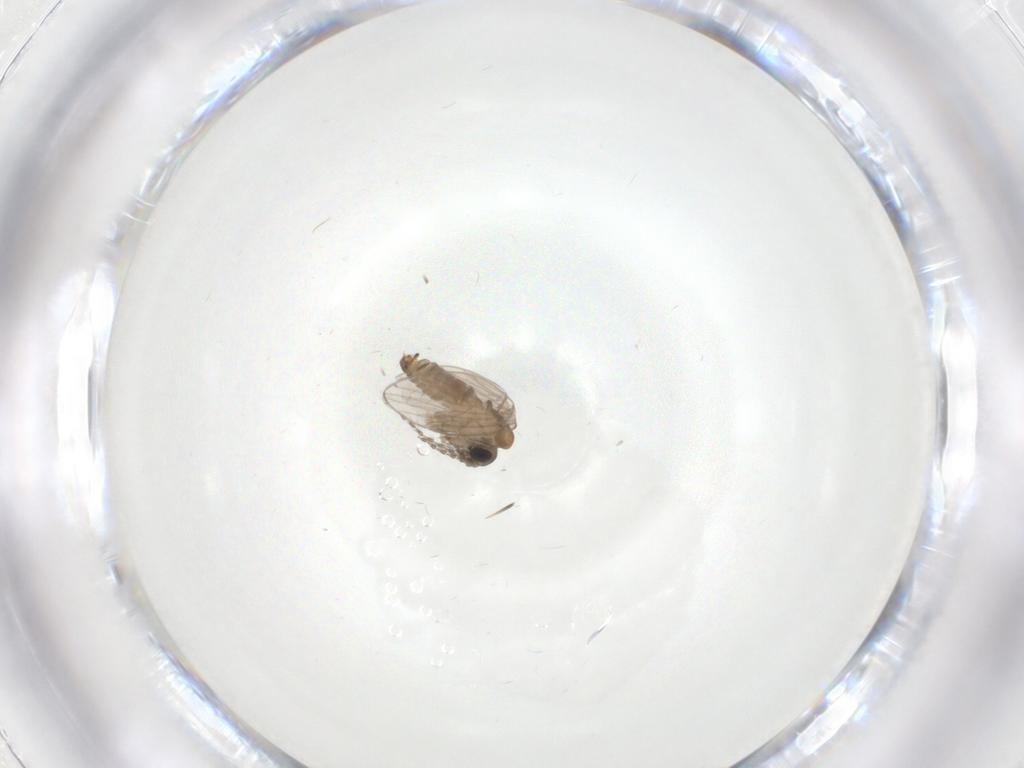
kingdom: Animalia
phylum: Arthropoda
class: Insecta
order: Diptera
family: Psychodidae
